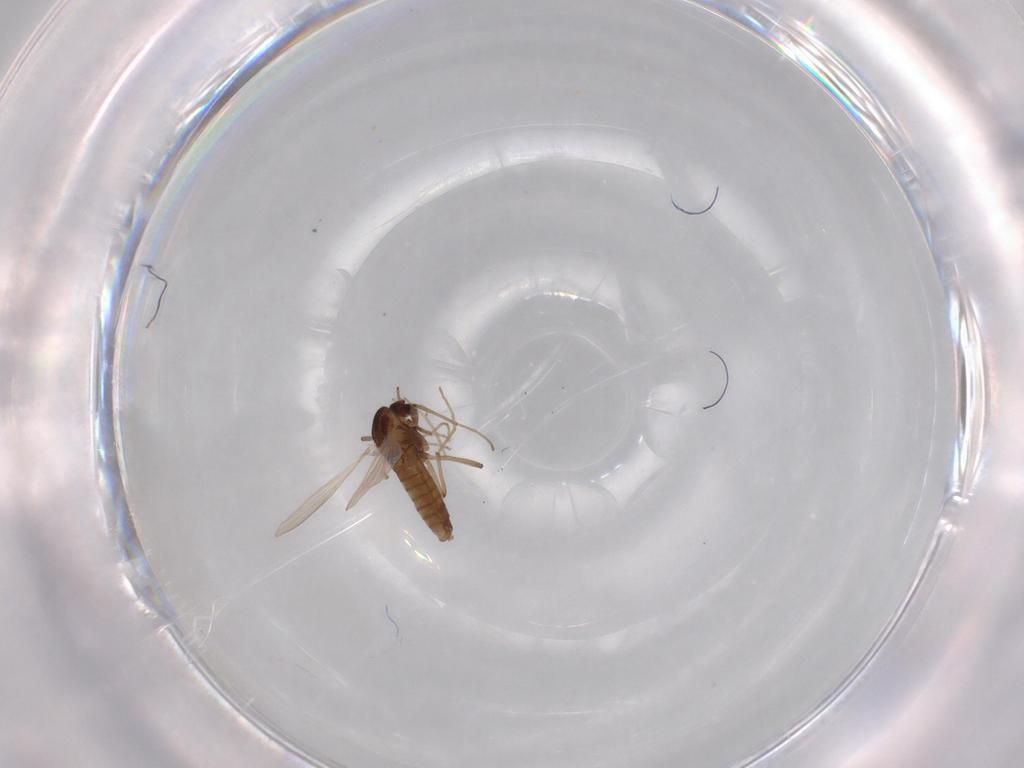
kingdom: Animalia
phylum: Arthropoda
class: Insecta
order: Diptera
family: Chironomidae
